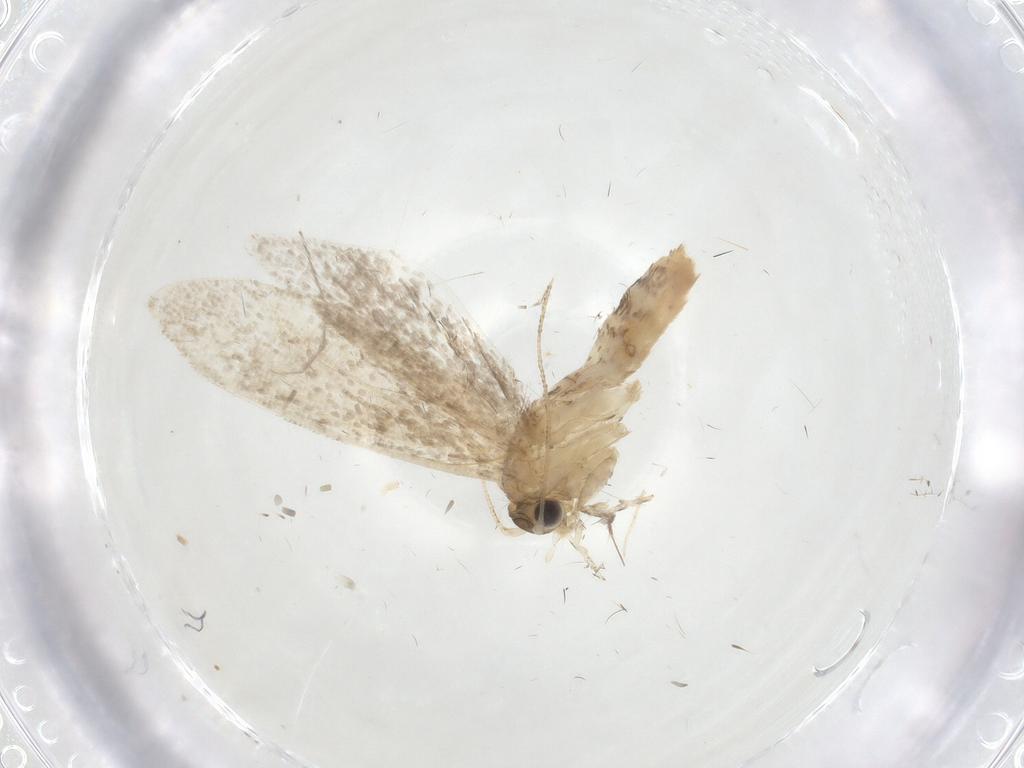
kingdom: Animalia
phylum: Arthropoda
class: Insecta
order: Lepidoptera
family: Tineidae
